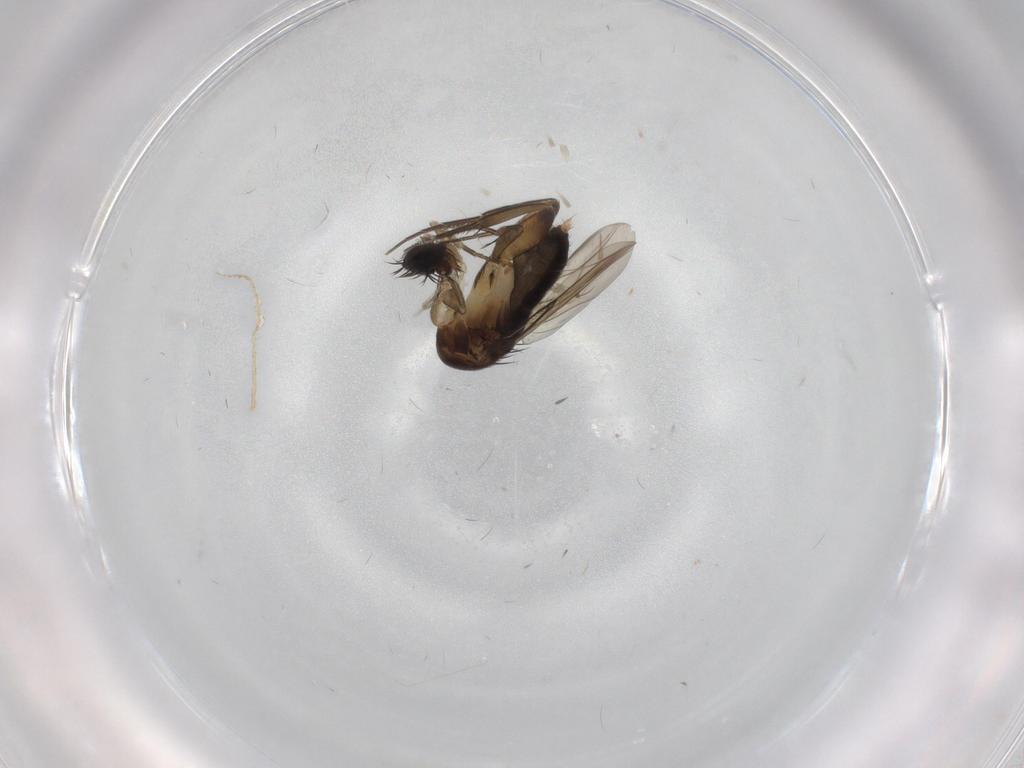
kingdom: Animalia
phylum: Arthropoda
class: Insecta
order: Diptera
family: Phoridae
